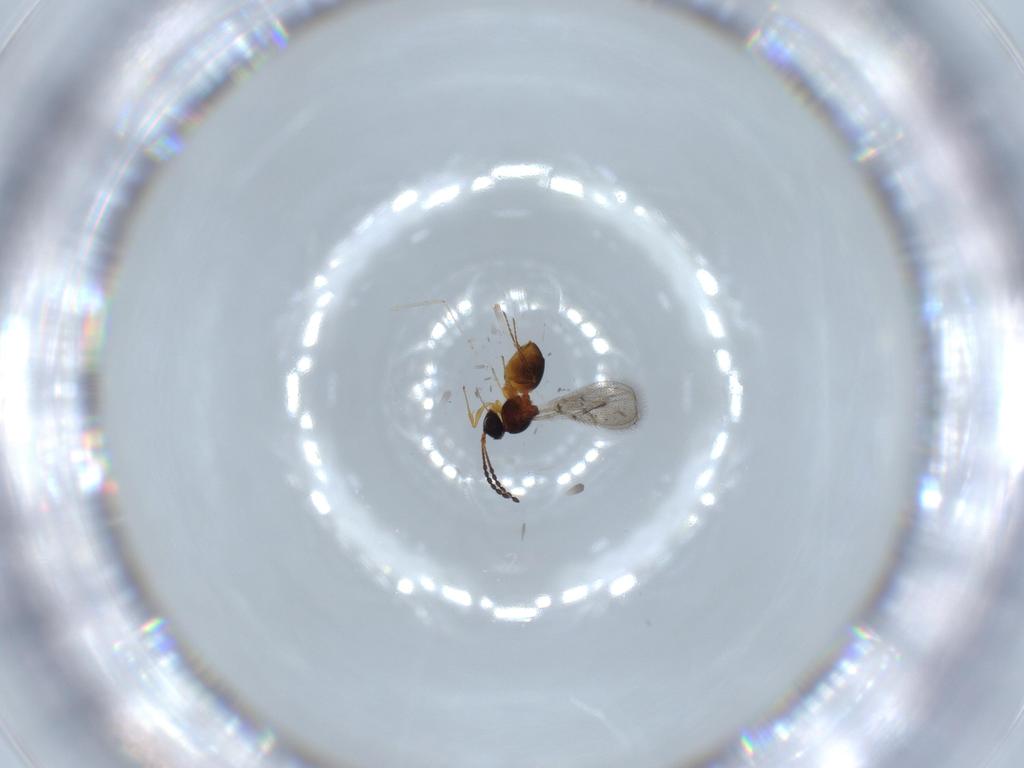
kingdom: Animalia
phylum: Arthropoda
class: Insecta
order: Hymenoptera
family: Figitidae
